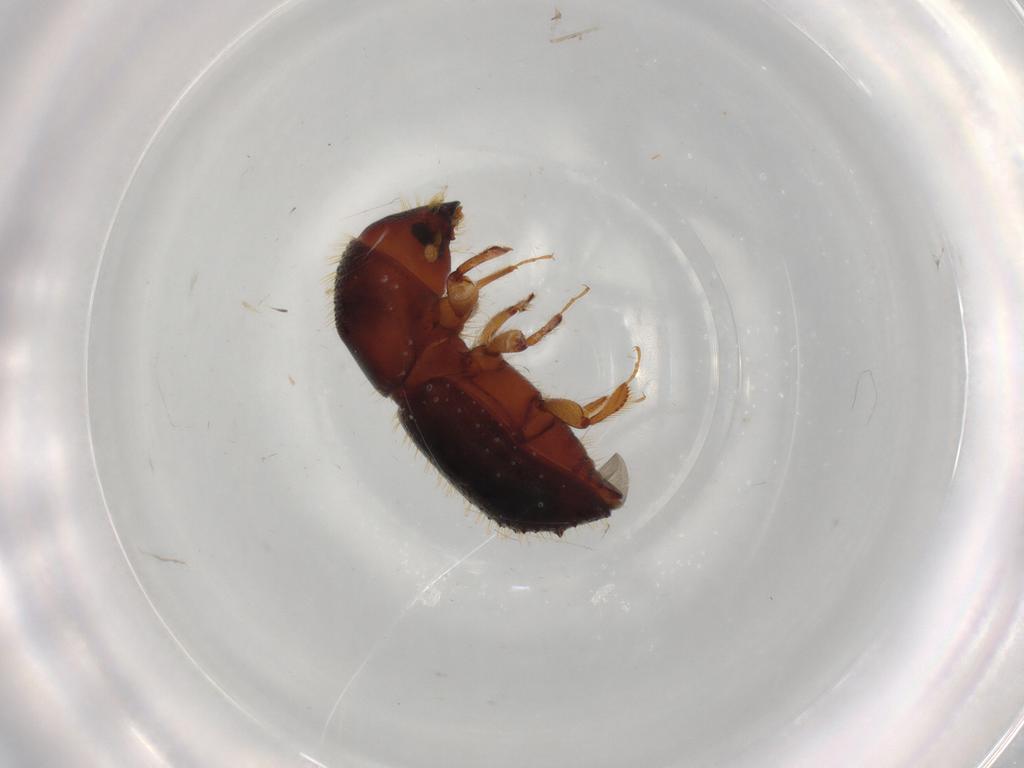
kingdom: Animalia
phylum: Arthropoda
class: Insecta
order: Coleoptera
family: Curculionidae
